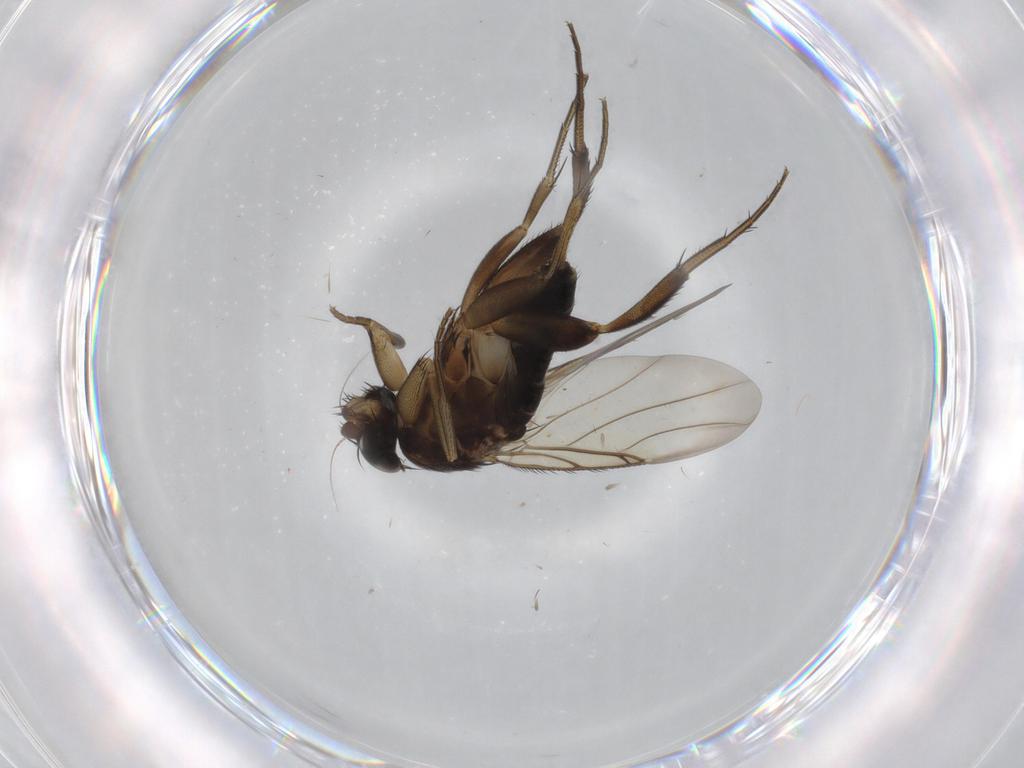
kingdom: Animalia
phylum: Arthropoda
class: Insecta
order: Diptera
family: Phoridae
